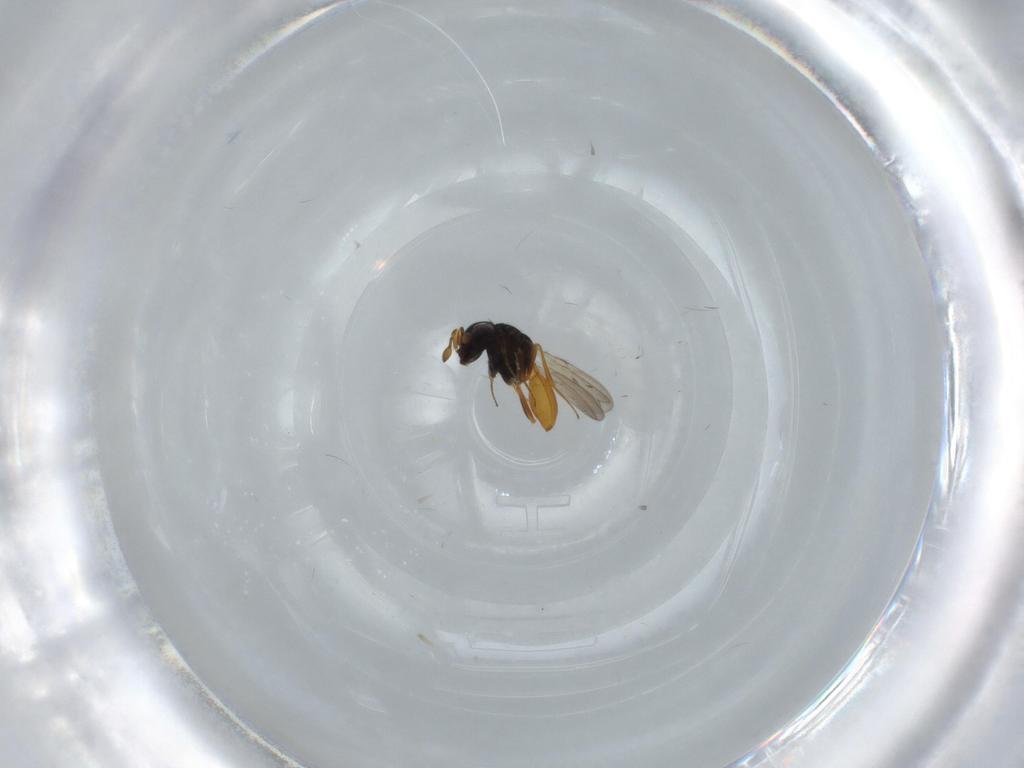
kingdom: Animalia
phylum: Arthropoda
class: Insecta
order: Hymenoptera
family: Scelionidae
